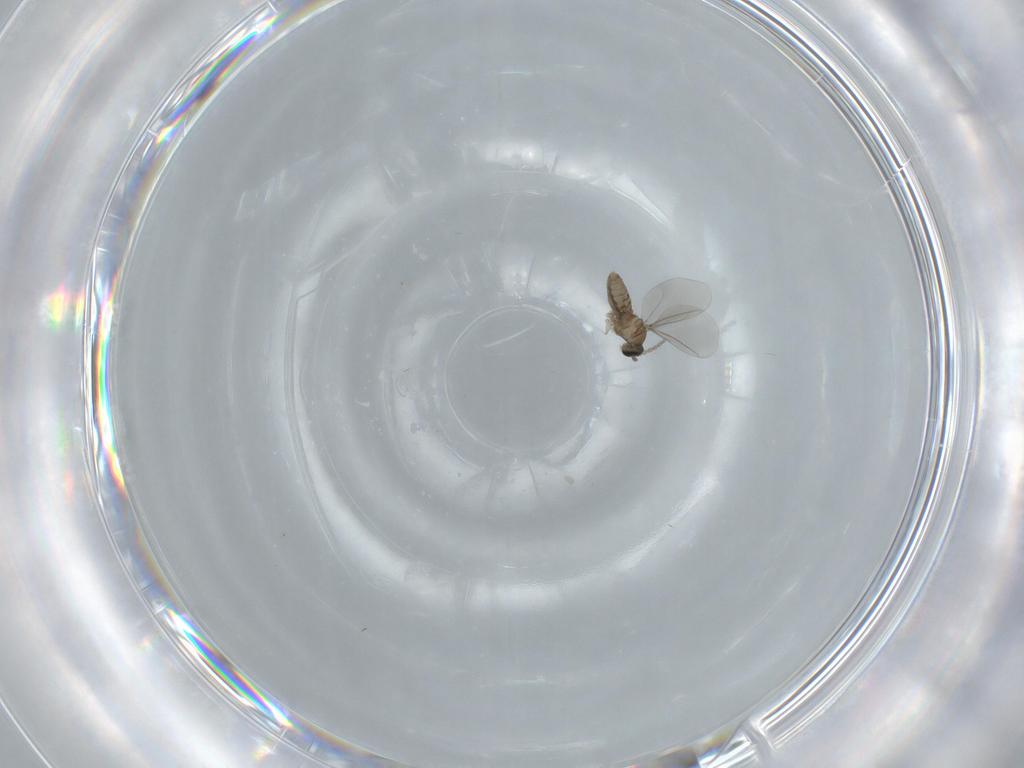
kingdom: Animalia
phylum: Arthropoda
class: Insecta
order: Diptera
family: Cecidomyiidae
